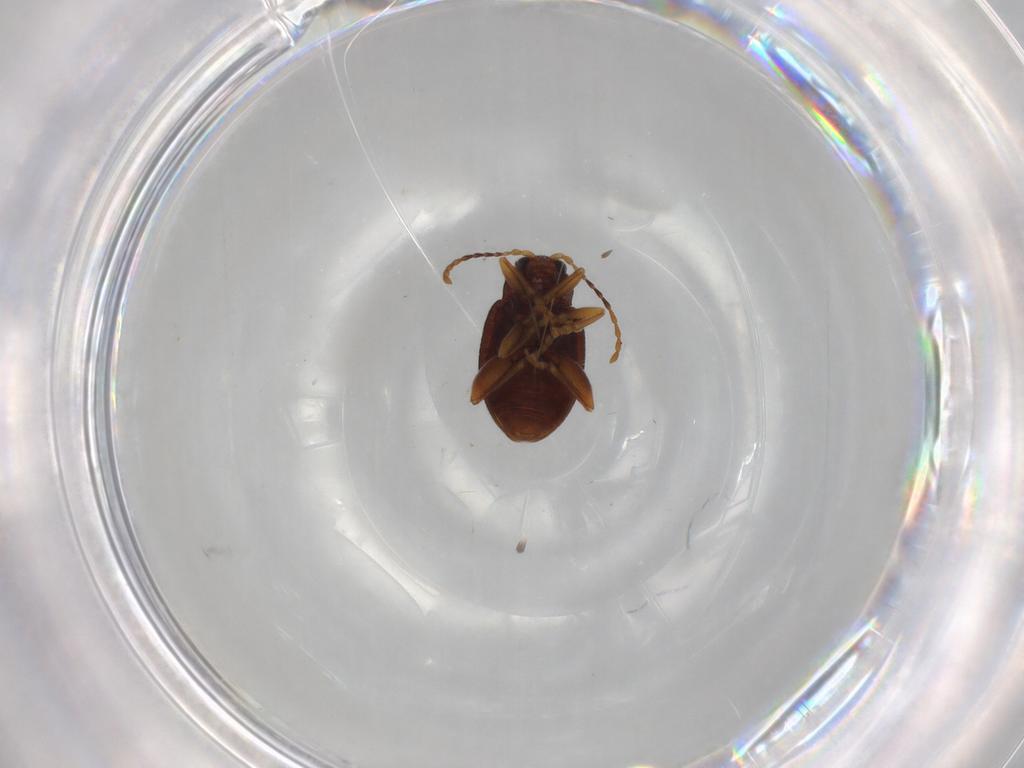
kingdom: Animalia
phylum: Arthropoda
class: Insecta
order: Coleoptera
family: Chrysomelidae
